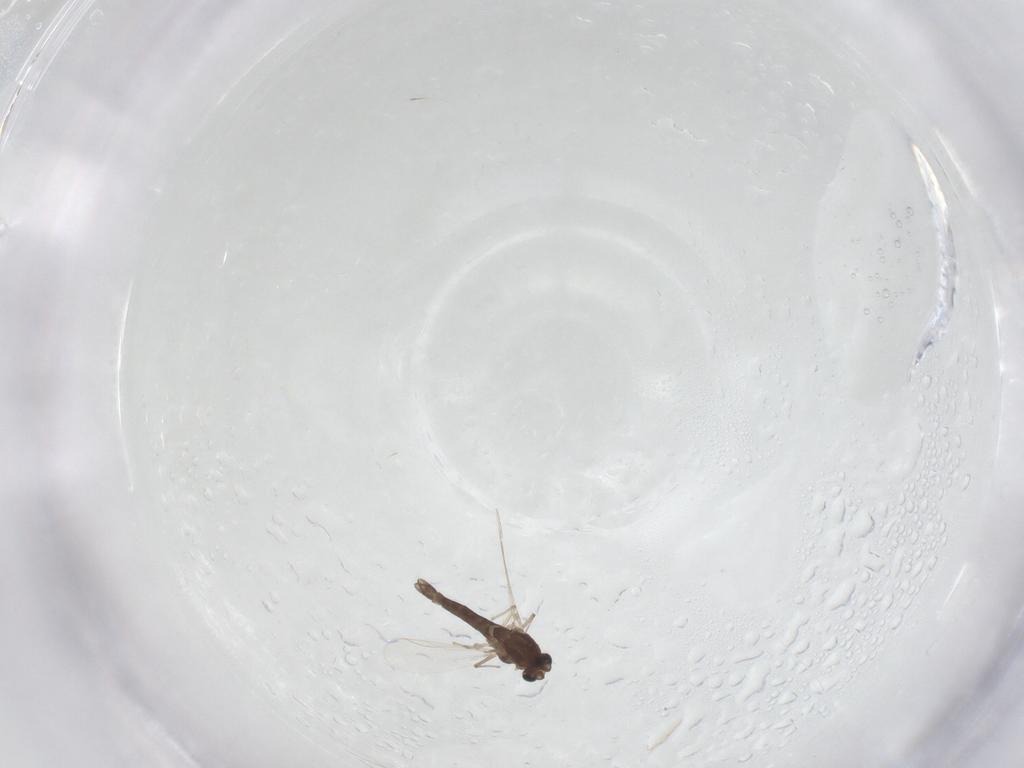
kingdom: Animalia
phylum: Arthropoda
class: Insecta
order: Diptera
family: Chironomidae
